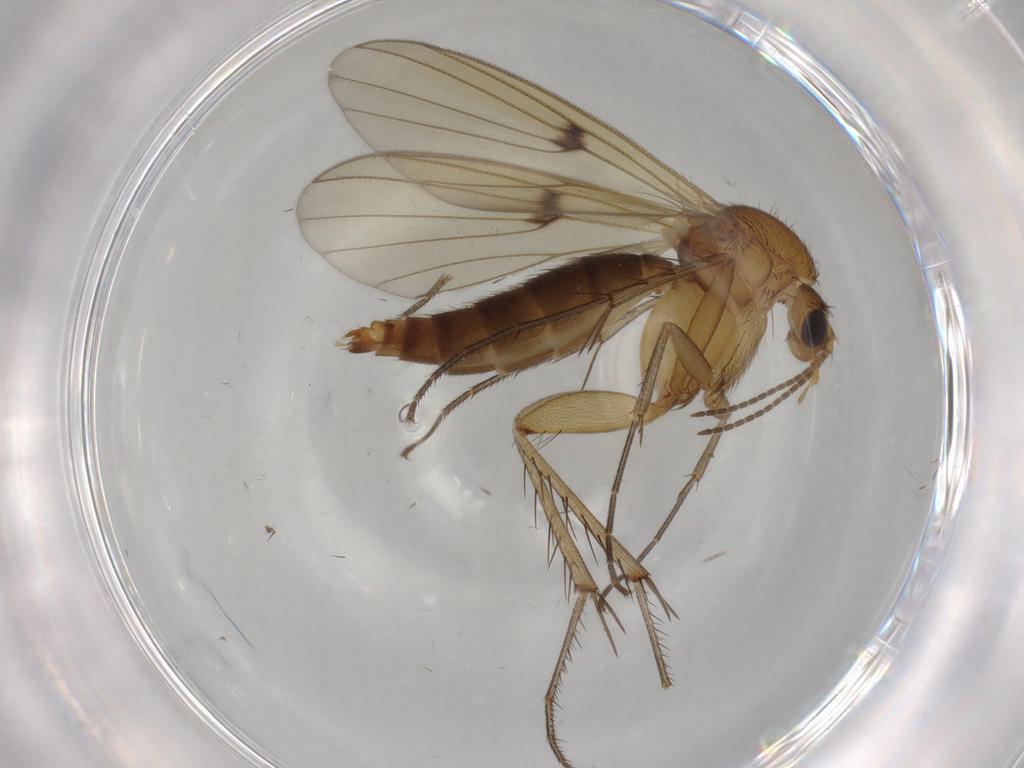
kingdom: Animalia
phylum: Arthropoda
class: Insecta
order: Diptera
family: Mycetophilidae
